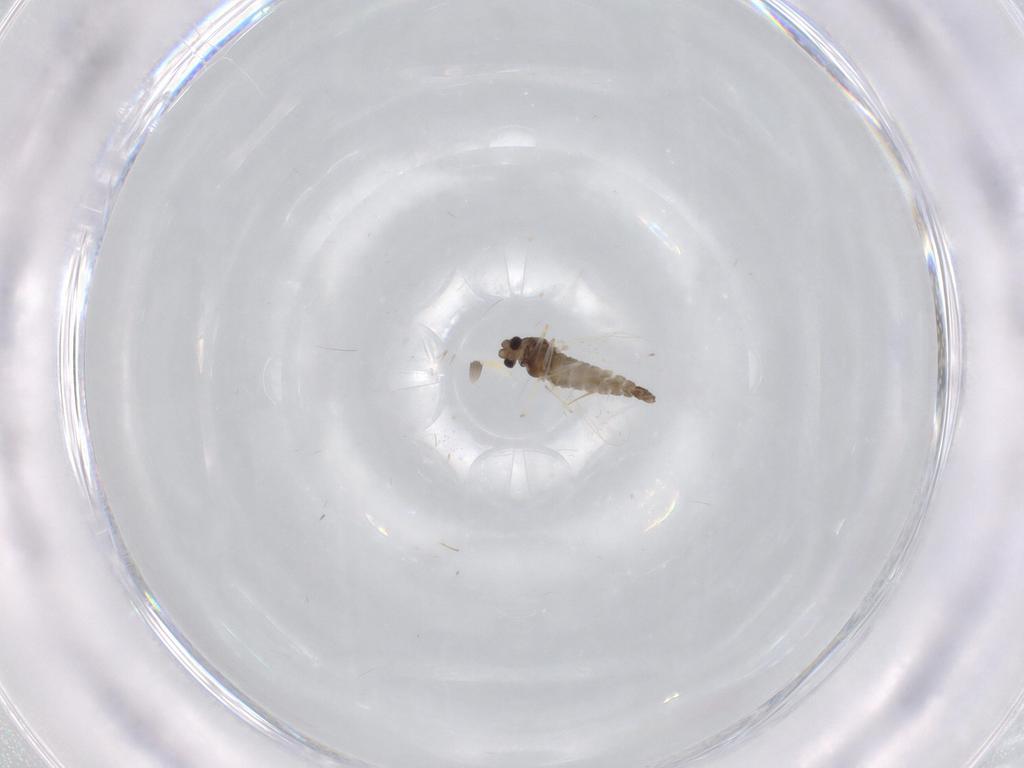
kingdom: Animalia
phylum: Arthropoda
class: Insecta
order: Diptera
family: Chironomidae
